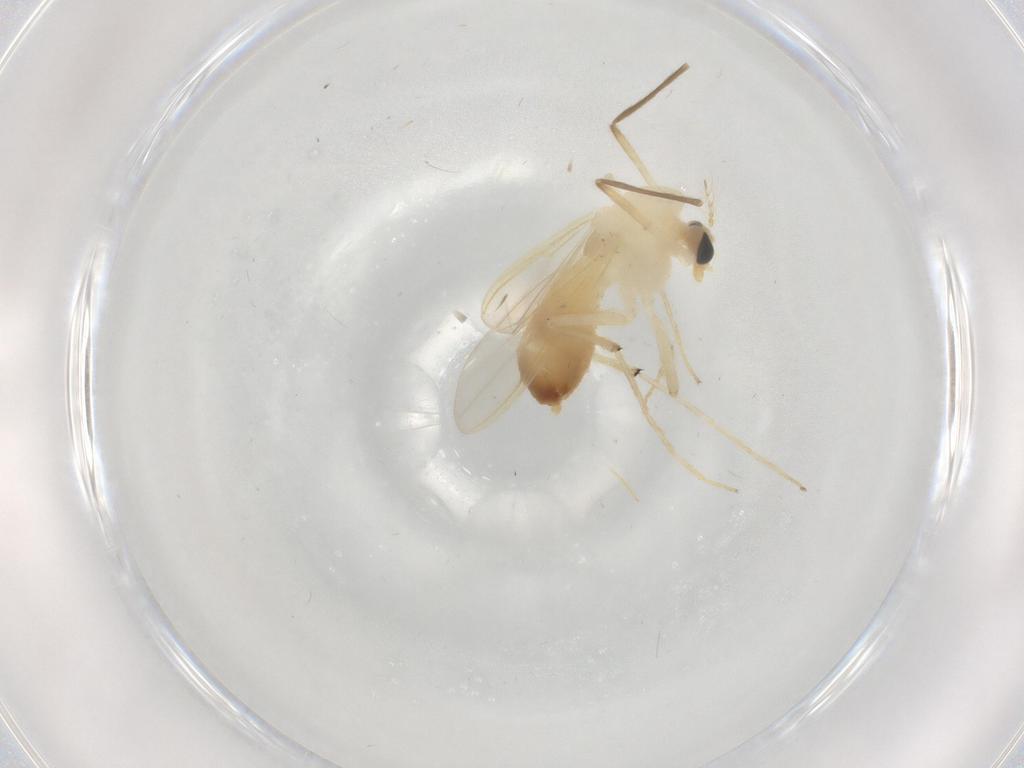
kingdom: Animalia
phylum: Arthropoda
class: Insecta
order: Diptera
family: Chironomidae
